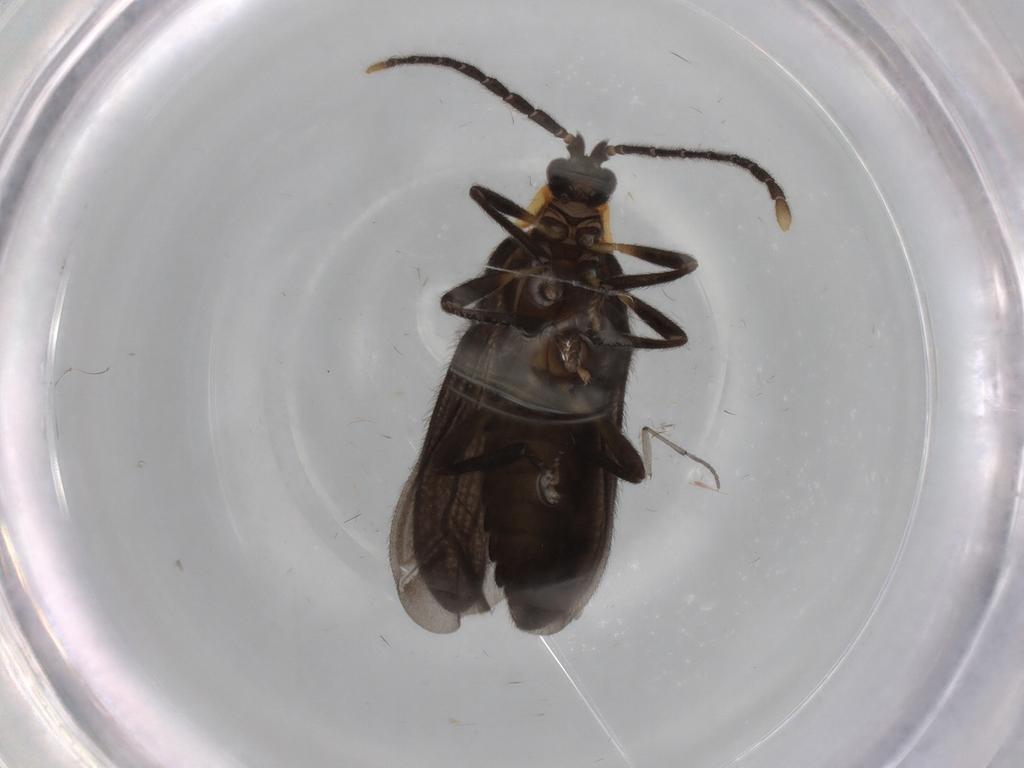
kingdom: Animalia
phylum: Arthropoda
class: Insecta
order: Coleoptera
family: Lycidae
